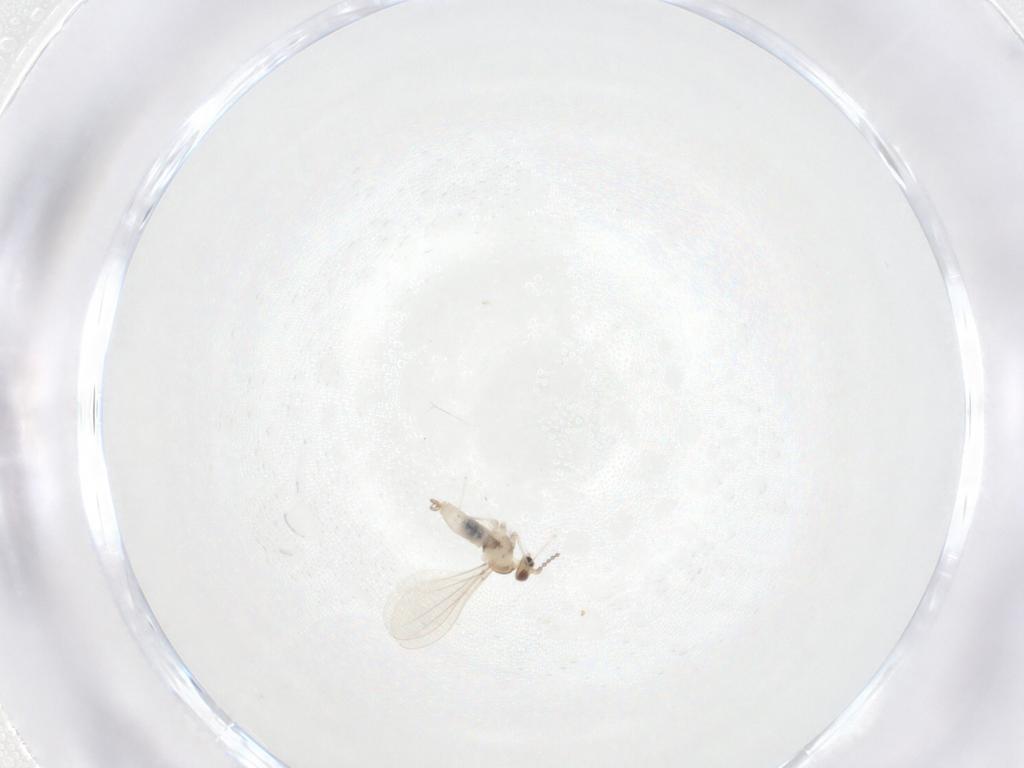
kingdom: Animalia
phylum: Arthropoda
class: Insecta
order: Diptera
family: Cecidomyiidae
